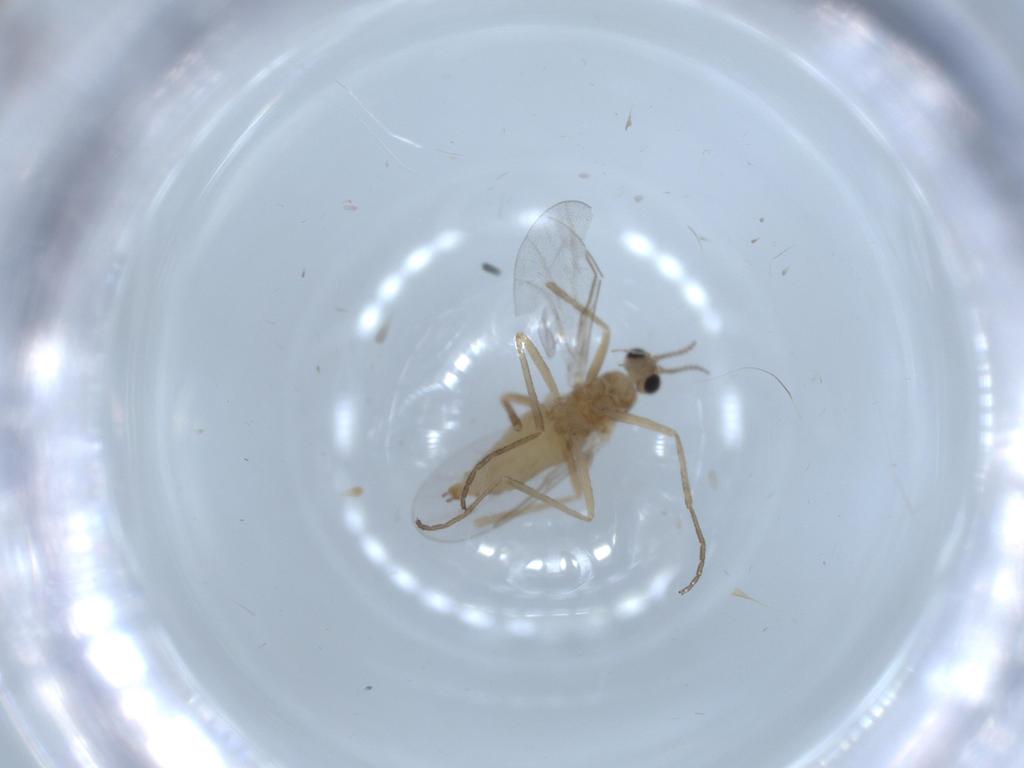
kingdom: Animalia
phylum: Arthropoda
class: Insecta
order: Diptera
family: Cecidomyiidae
